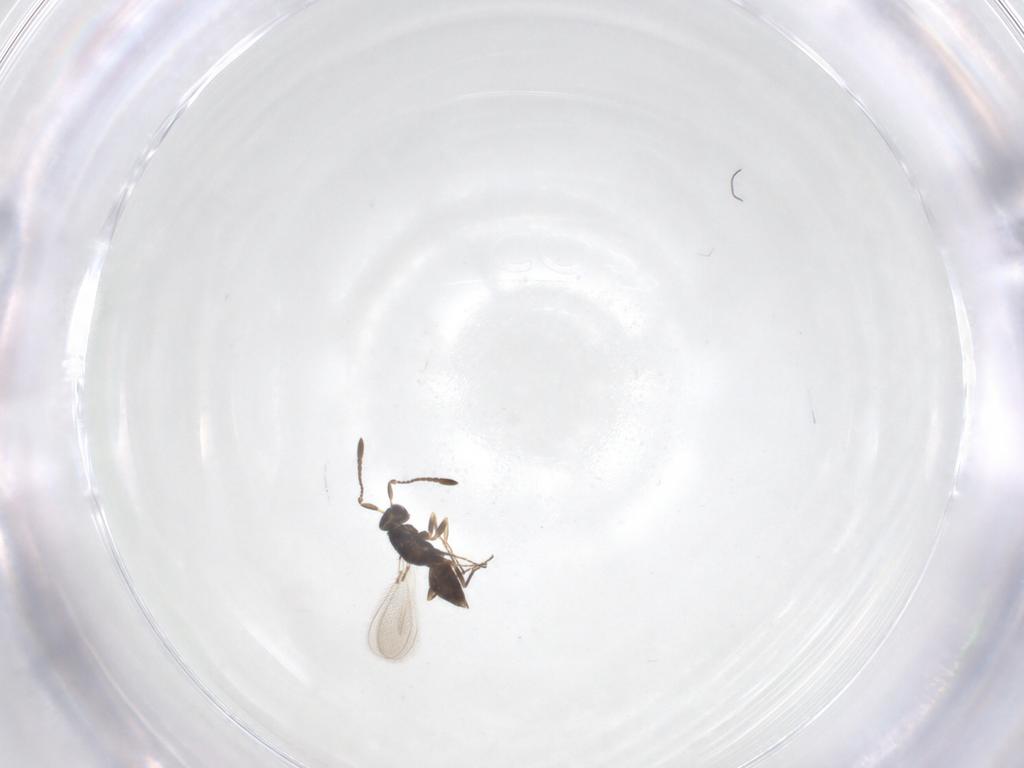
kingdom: Animalia
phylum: Arthropoda
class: Insecta
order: Hymenoptera
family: Mymaridae
